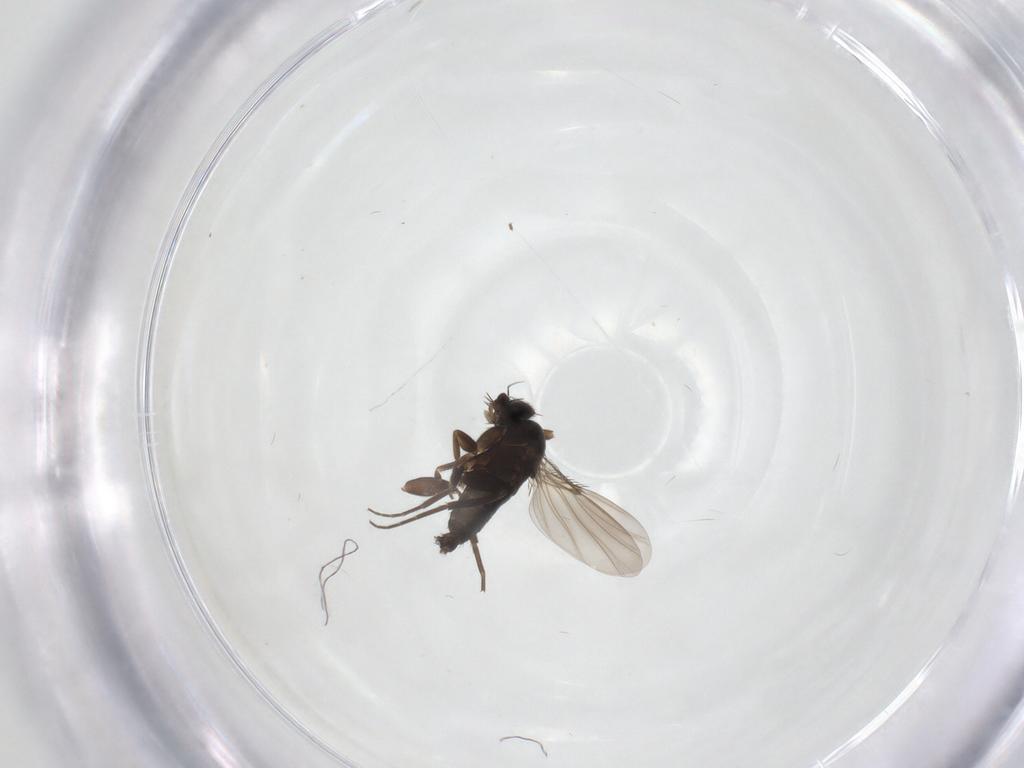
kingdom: Animalia
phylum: Arthropoda
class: Insecta
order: Diptera
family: Phoridae
